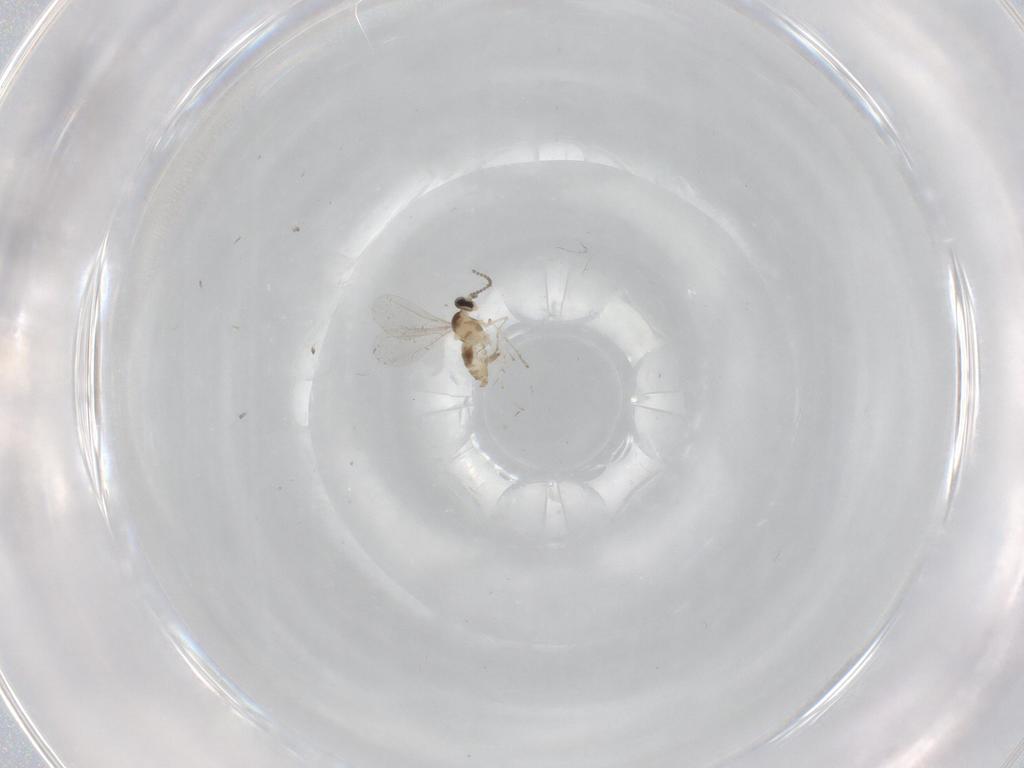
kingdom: Animalia
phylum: Arthropoda
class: Insecta
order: Diptera
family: Cecidomyiidae
